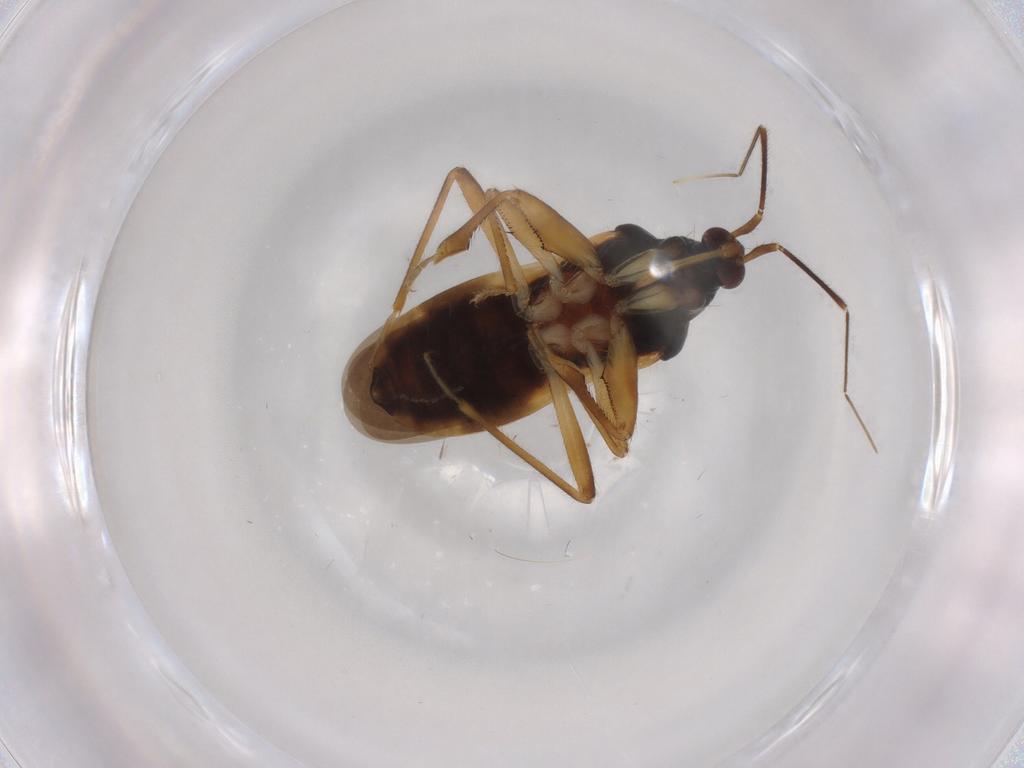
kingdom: Animalia
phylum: Arthropoda
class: Insecta
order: Hemiptera
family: Nabidae
